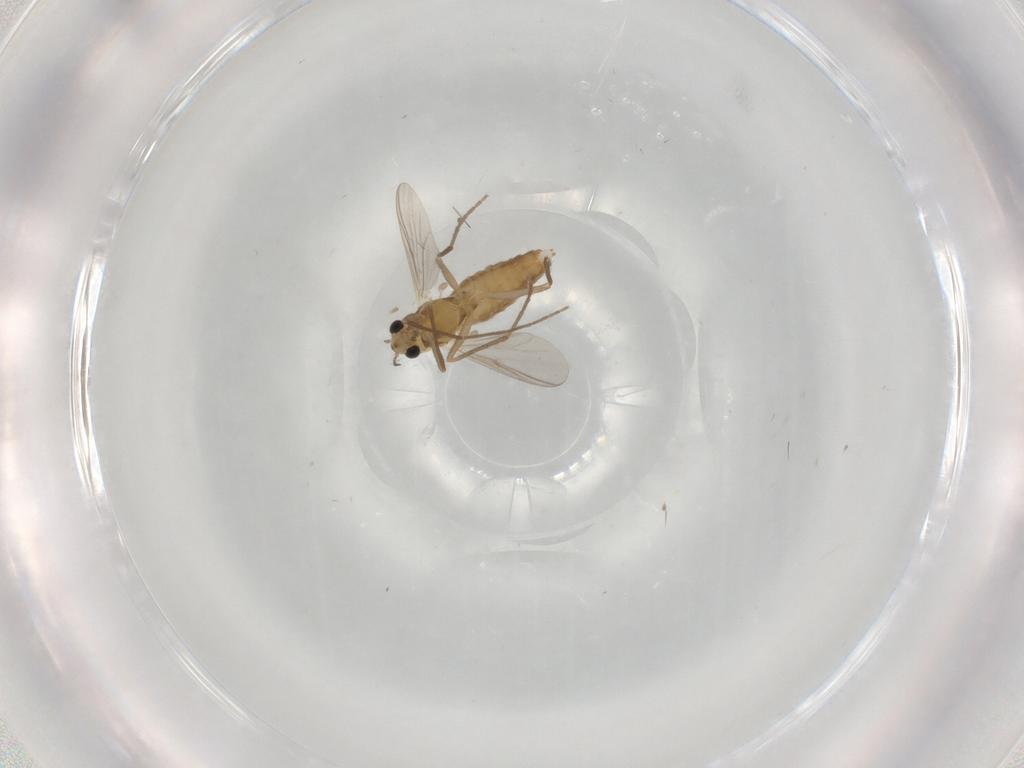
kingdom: Animalia
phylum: Arthropoda
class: Insecta
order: Diptera
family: Chironomidae
